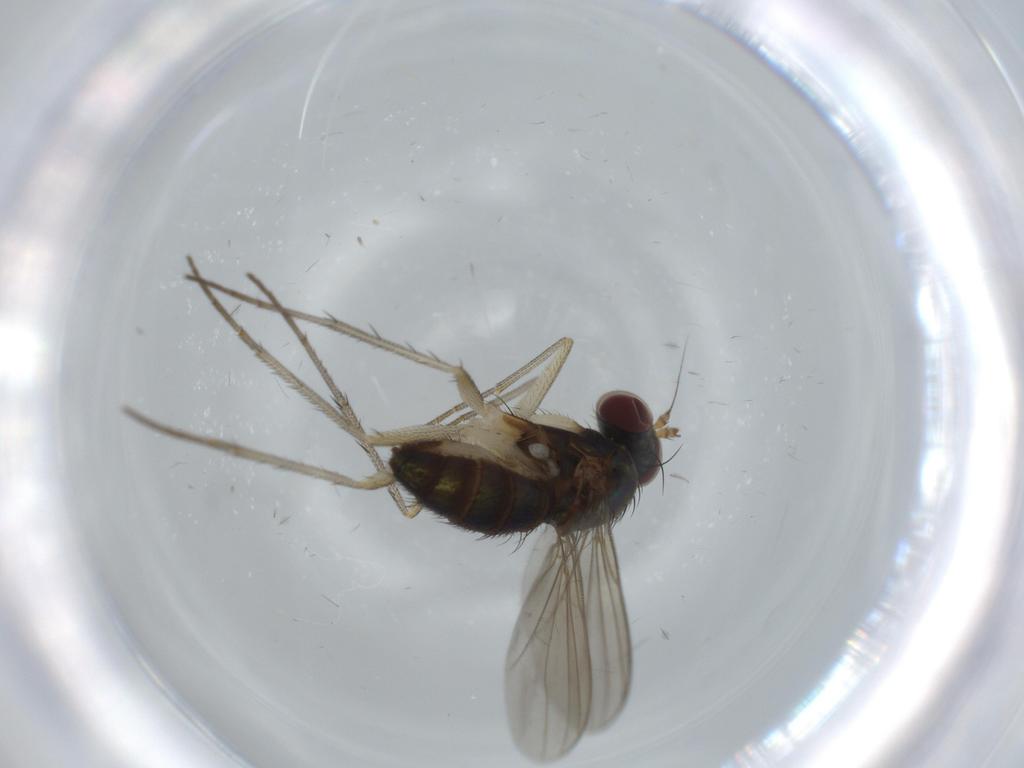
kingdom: Animalia
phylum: Arthropoda
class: Insecta
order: Diptera
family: Dolichopodidae
